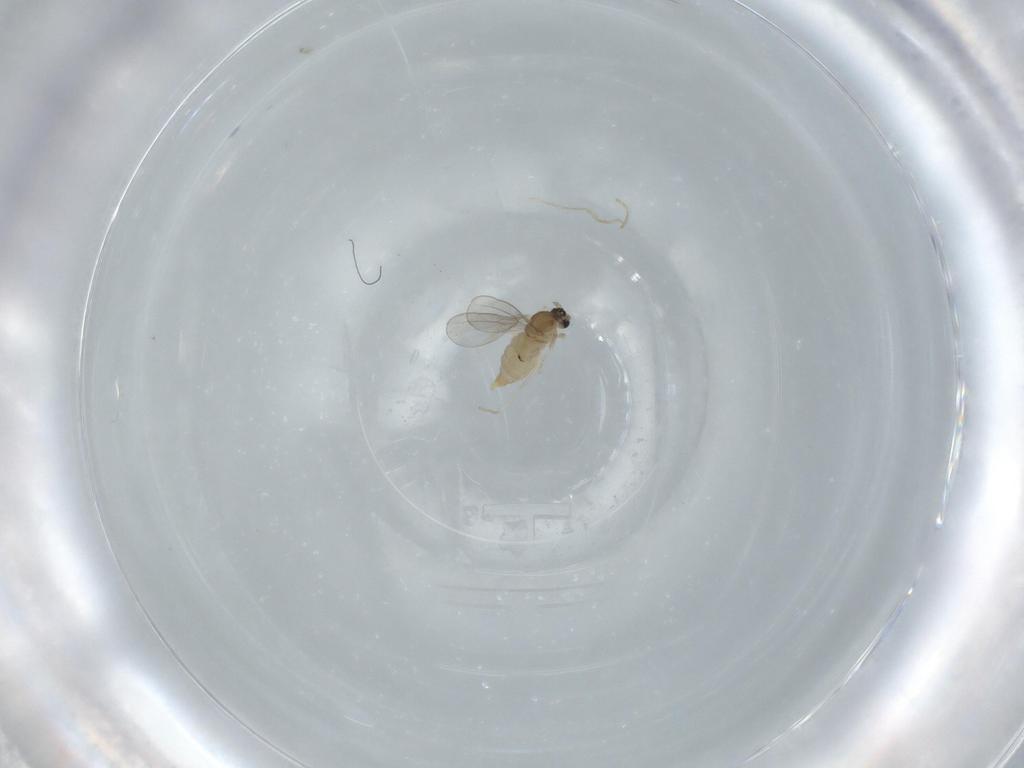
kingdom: Animalia
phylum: Arthropoda
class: Insecta
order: Diptera
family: Cecidomyiidae
